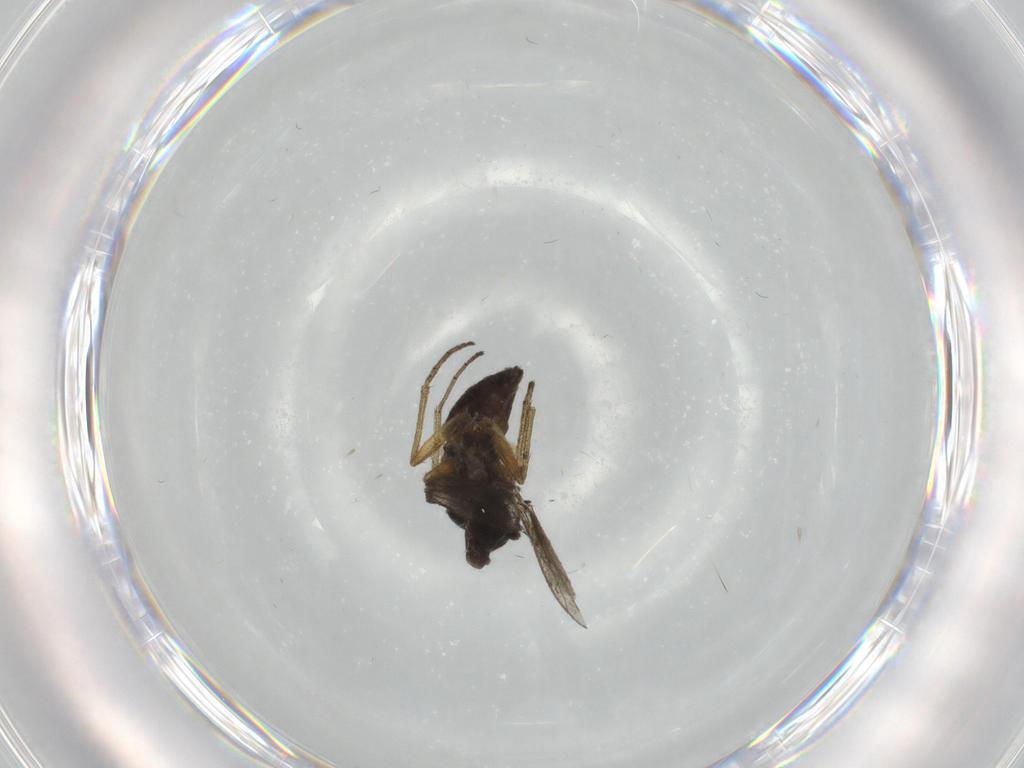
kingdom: Animalia
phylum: Arthropoda
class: Insecta
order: Diptera
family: Dolichopodidae
